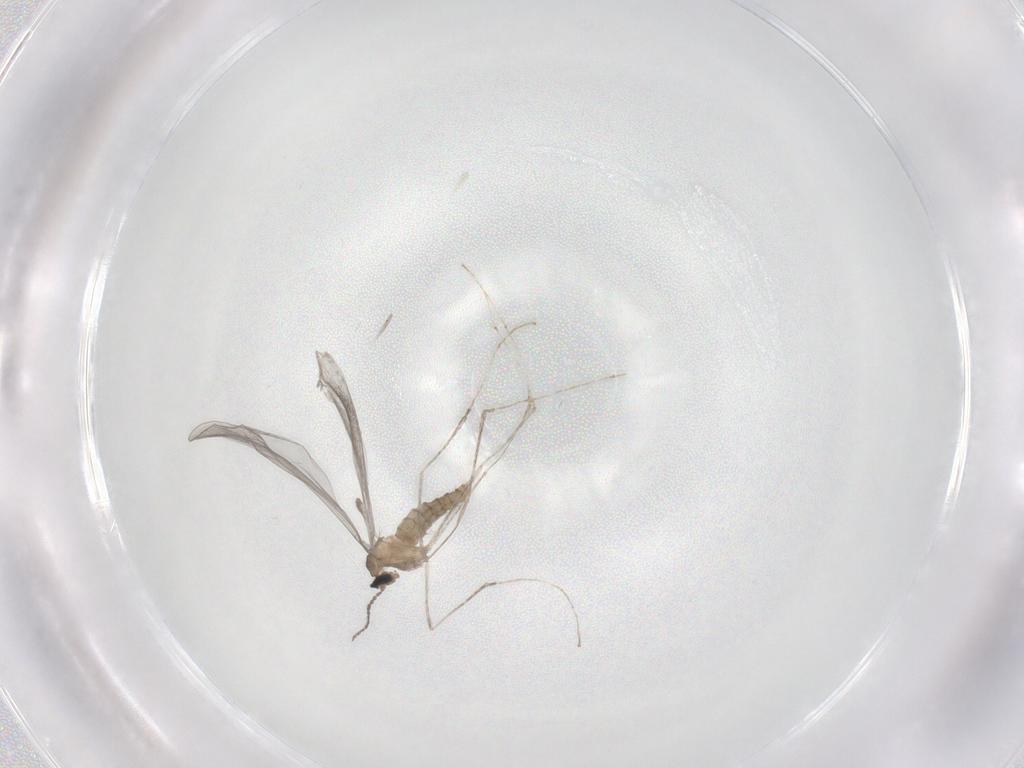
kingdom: Animalia
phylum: Arthropoda
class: Insecta
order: Diptera
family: Cecidomyiidae
